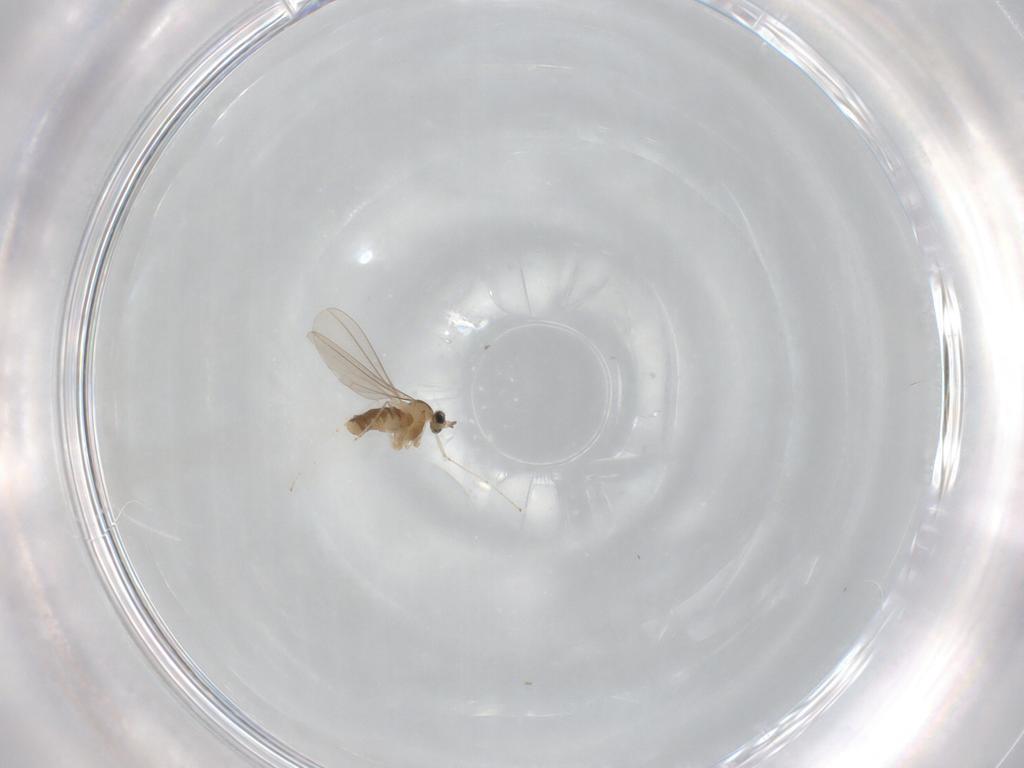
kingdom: Animalia
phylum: Arthropoda
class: Insecta
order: Diptera
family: Cecidomyiidae
